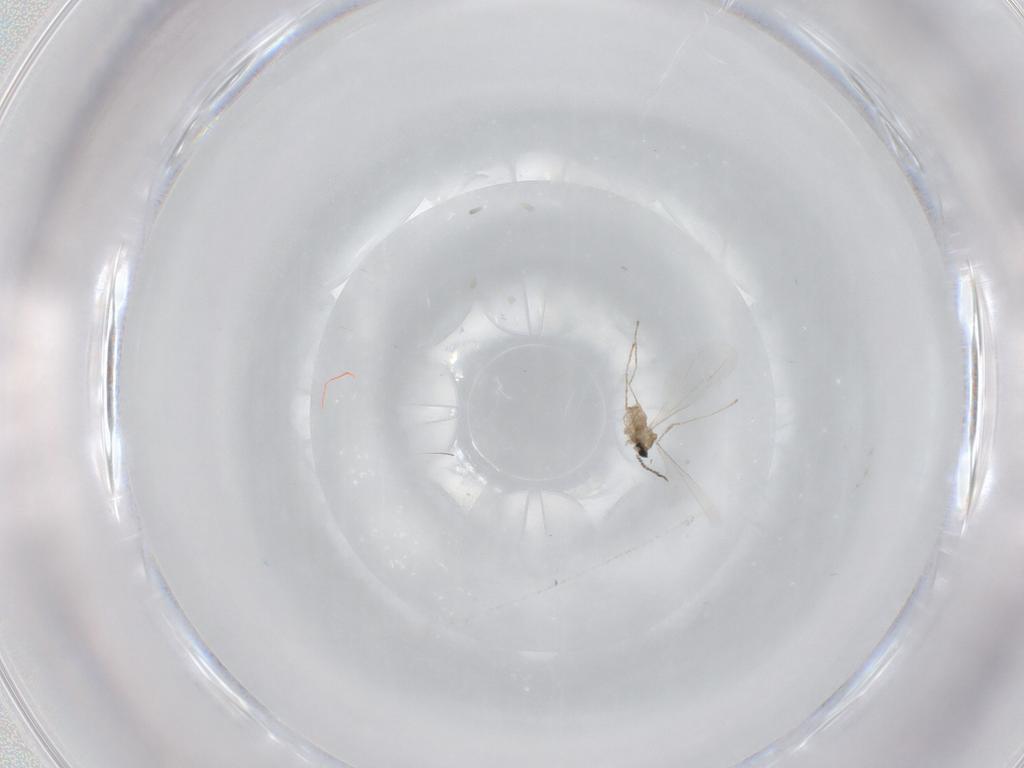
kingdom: Animalia
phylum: Arthropoda
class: Insecta
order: Diptera
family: Cecidomyiidae
